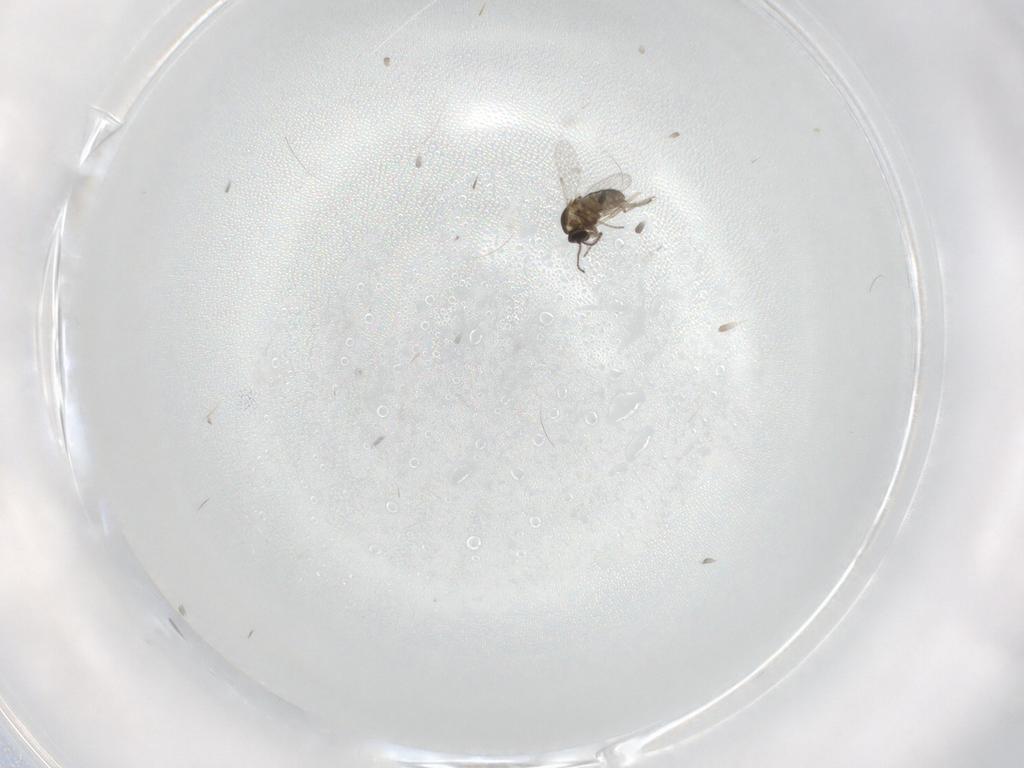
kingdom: Animalia
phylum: Arthropoda
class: Insecta
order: Diptera
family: Ceratopogonidae
